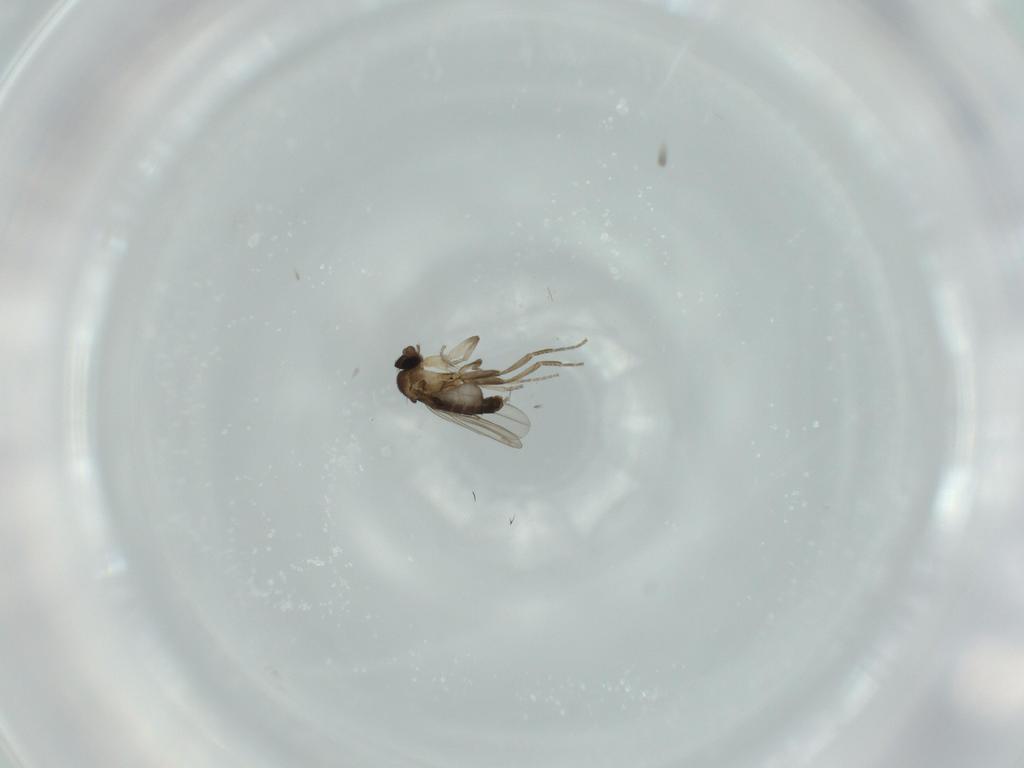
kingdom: Animalia
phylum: Arthropoda
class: Insecta
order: Diptera
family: Phoridae
